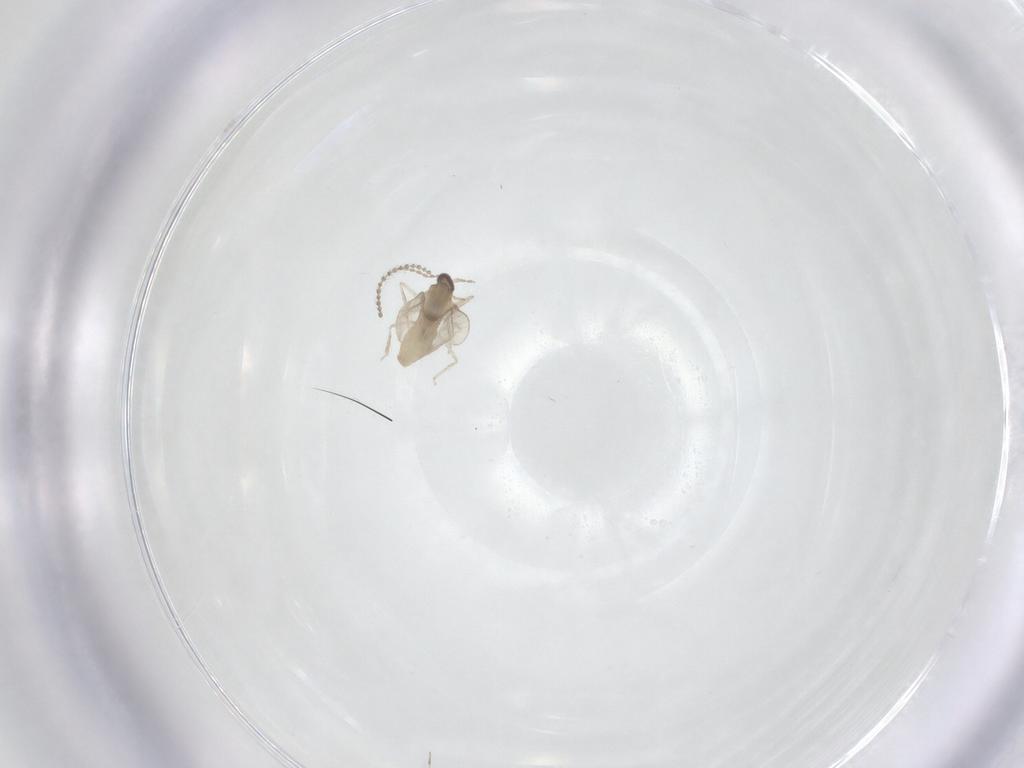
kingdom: Animalia
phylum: Arthropoda
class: Insecta
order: Diptera
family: Cecidomyiidae
